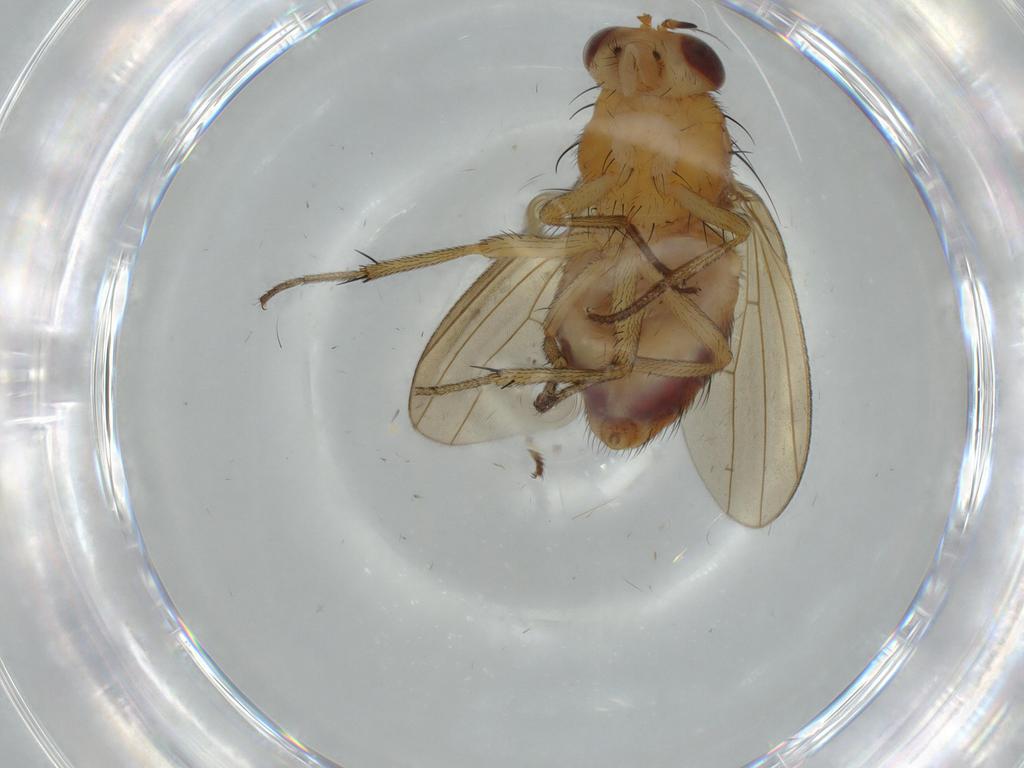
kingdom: Animalia
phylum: Arthropoda
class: Insecta
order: Diptera
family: Lauxaniidae
